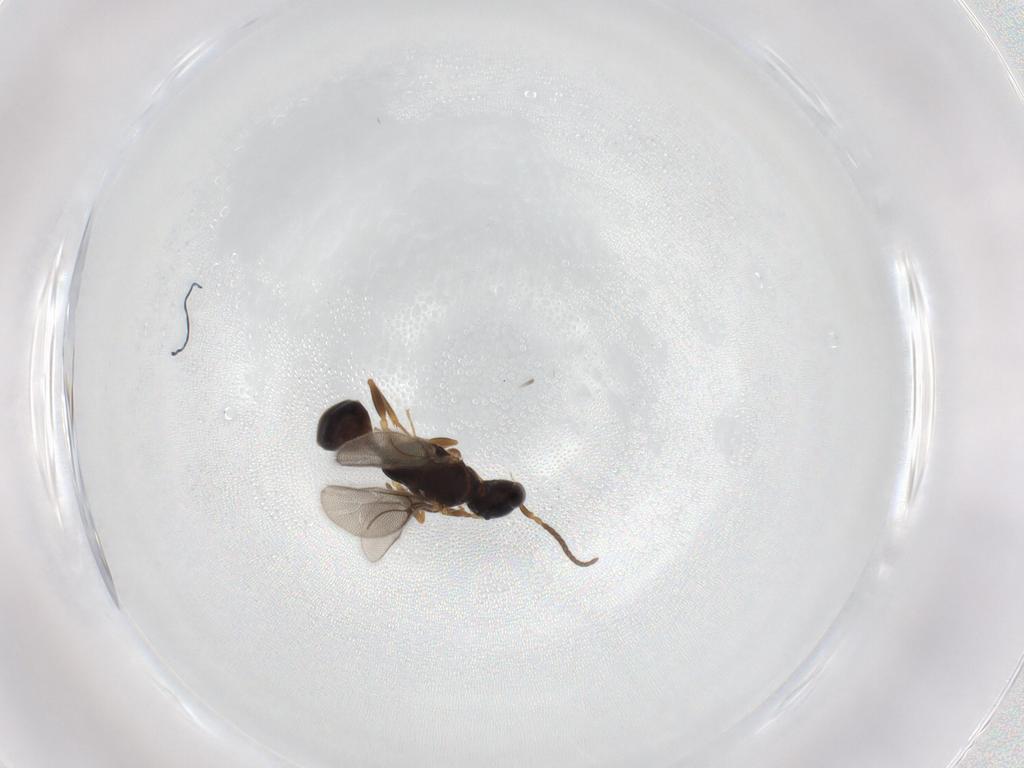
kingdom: Animalia
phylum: Arthropoda
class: Insecta
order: Hymenoptera
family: Bethylidae
